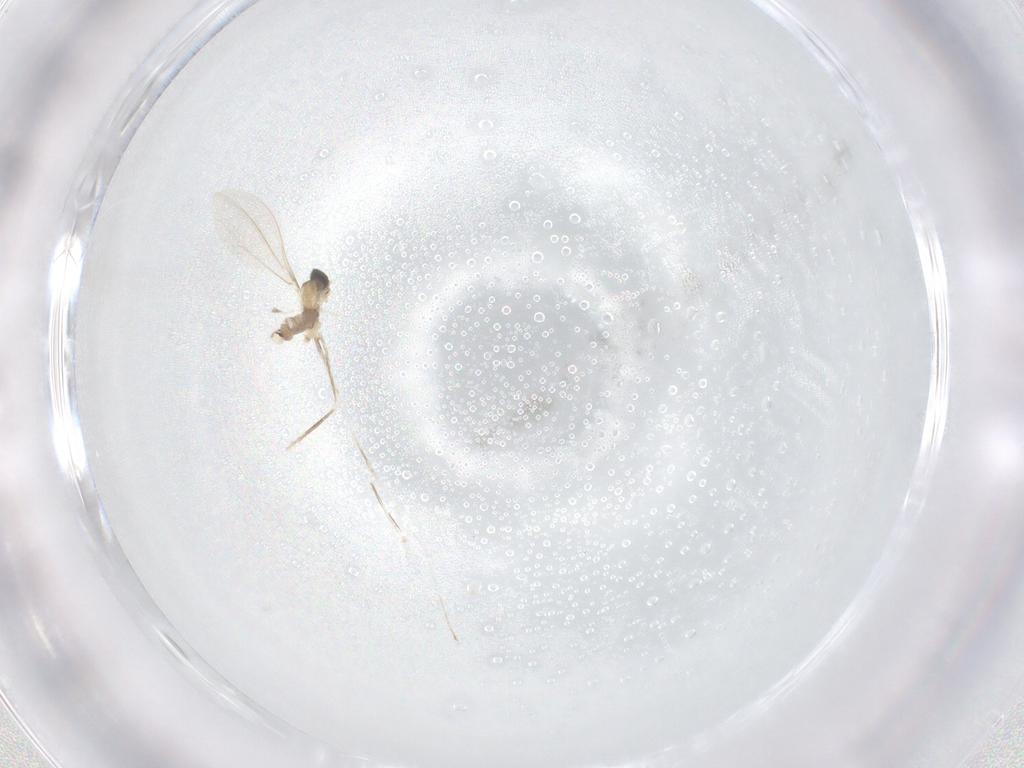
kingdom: Animalia
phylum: Arthropoda
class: Insecta
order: Diptera
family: Cecidomyiidae
